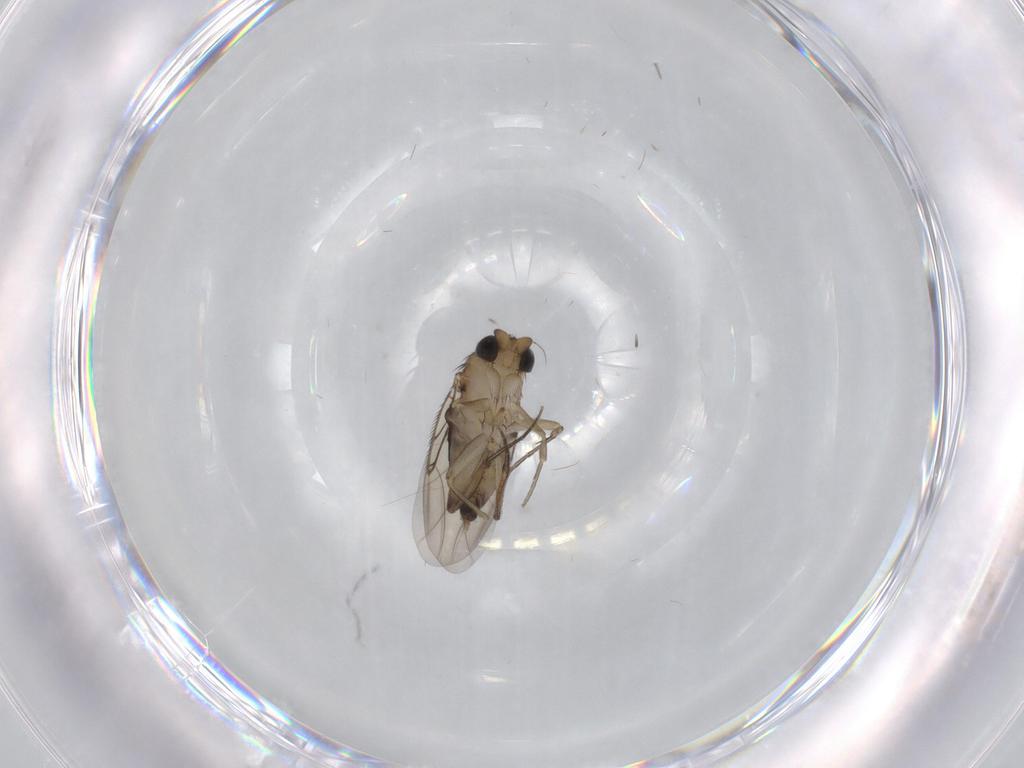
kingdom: Animalia
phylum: Arthropoda
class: Insecta
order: Diptera
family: Phoridae
